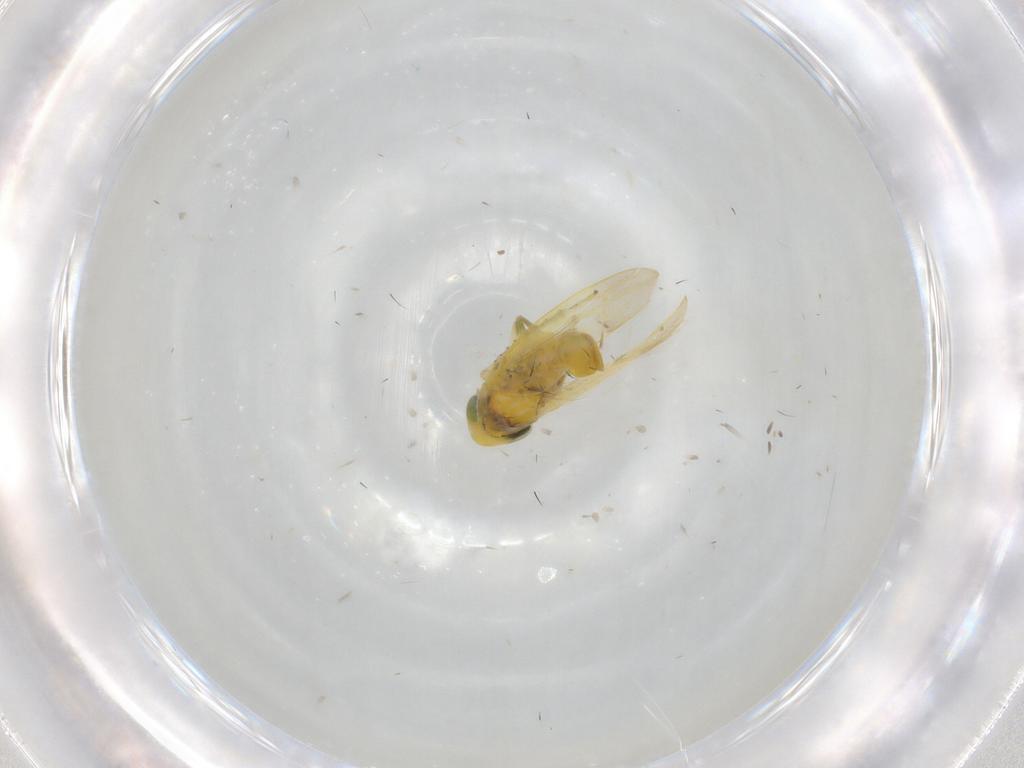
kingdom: Animalia
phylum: Arthropoda
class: Insecta
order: Hemiptera
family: Cicadellidae
